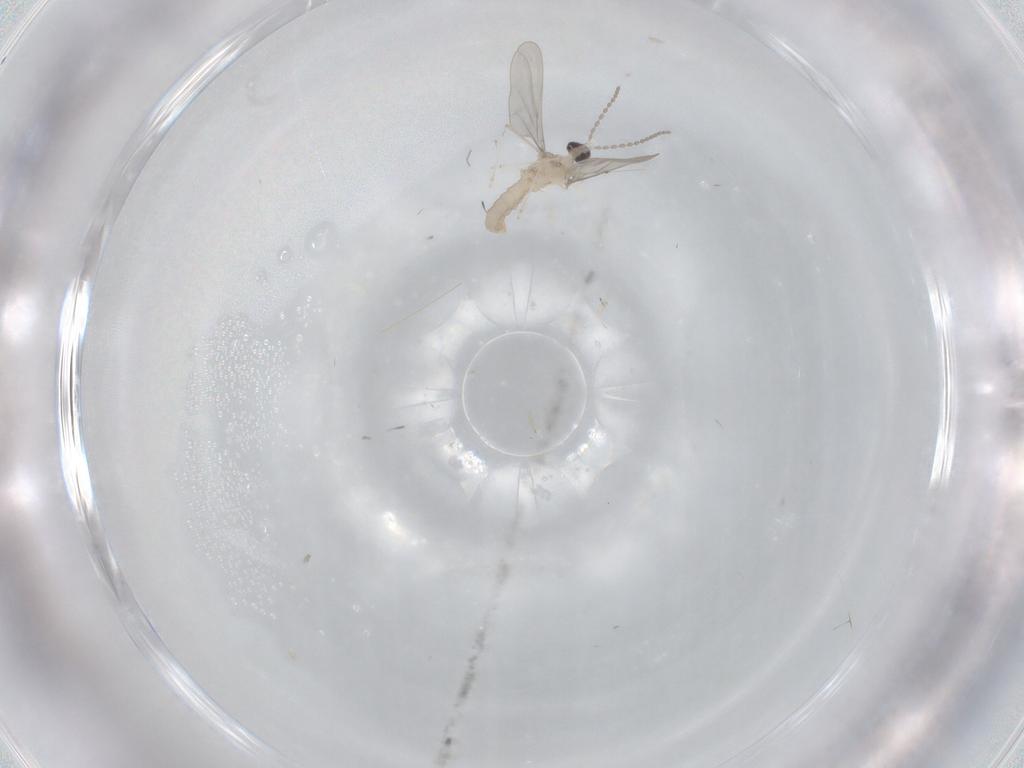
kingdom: Animalia
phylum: Arthropoda
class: Insecta
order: Diptera
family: Cecidomyiidae
